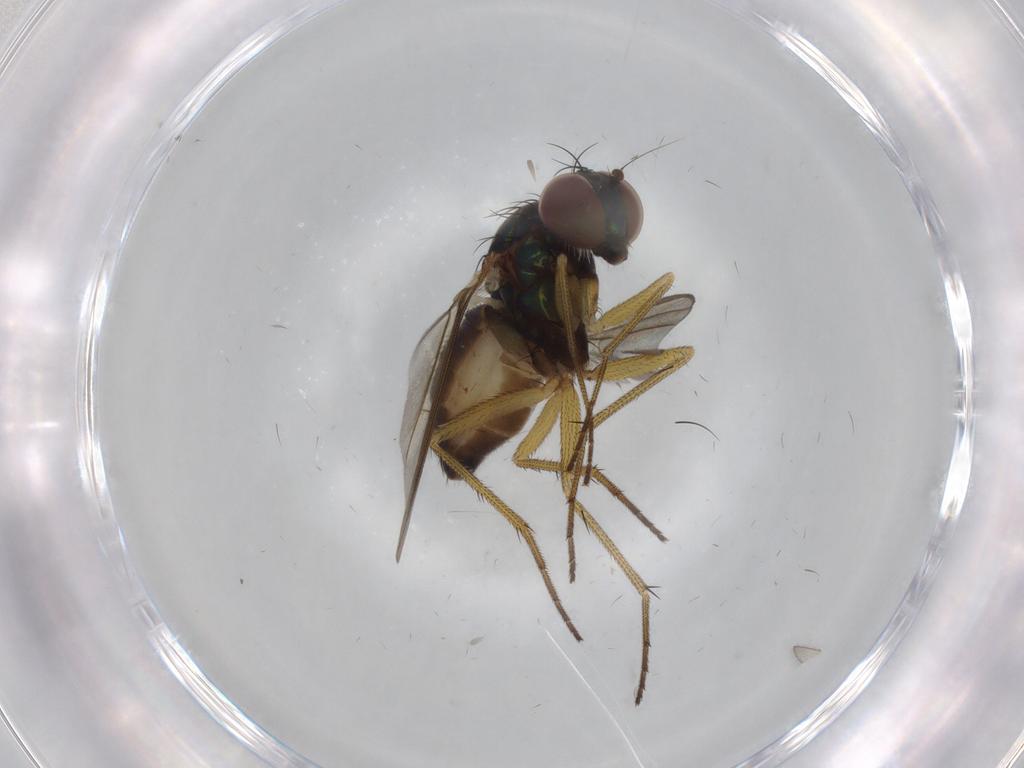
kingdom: Animalia
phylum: Arthropoda
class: Insecta
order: Diptera
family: Dolichopodidae
